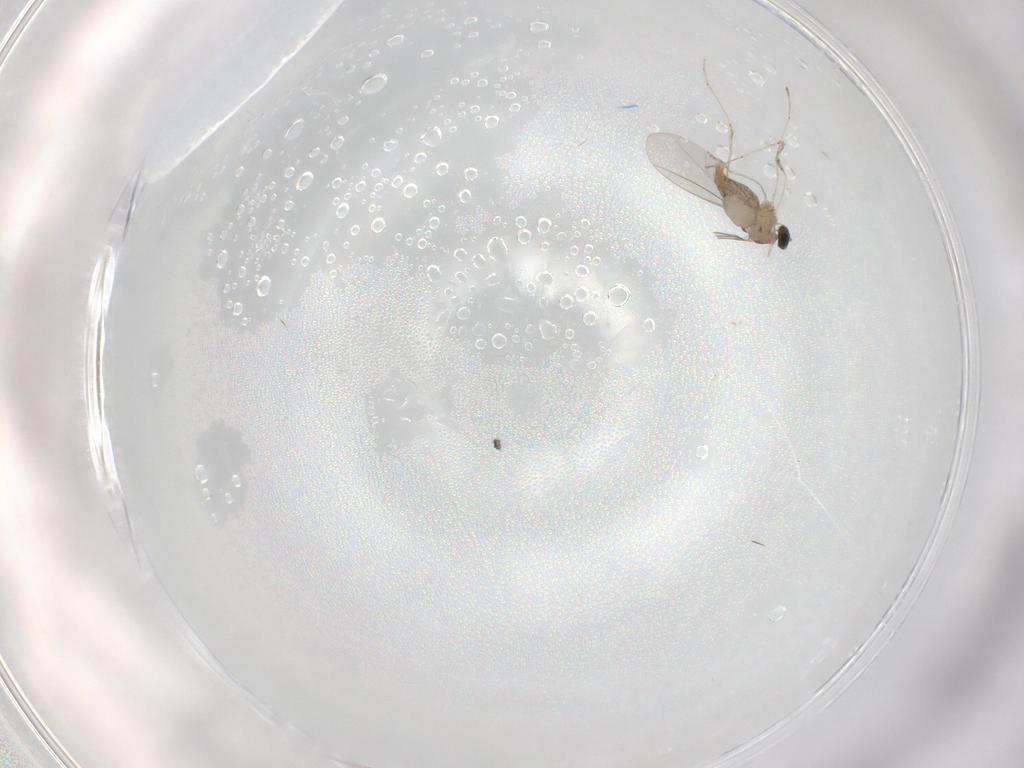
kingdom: Animalia
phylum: Arthropoda
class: Insecta
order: Diptera
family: Cecidomyiidae
